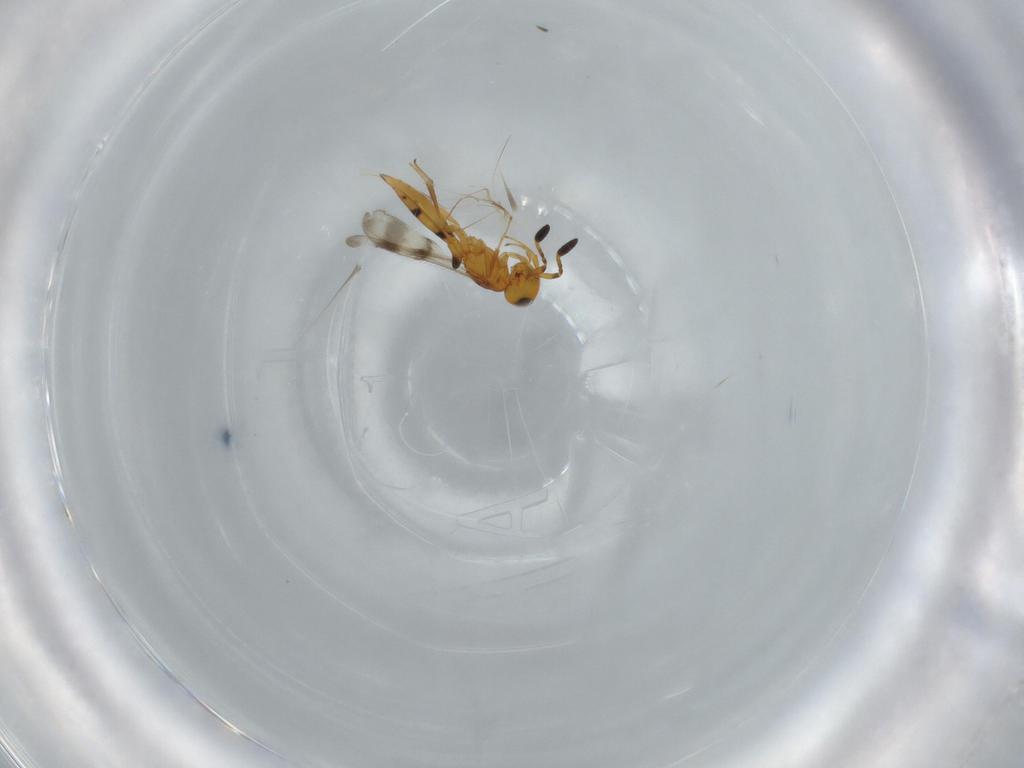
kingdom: Animalia
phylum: Arthropoda
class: Insecta
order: Hymenoptera
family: Scelionidae
